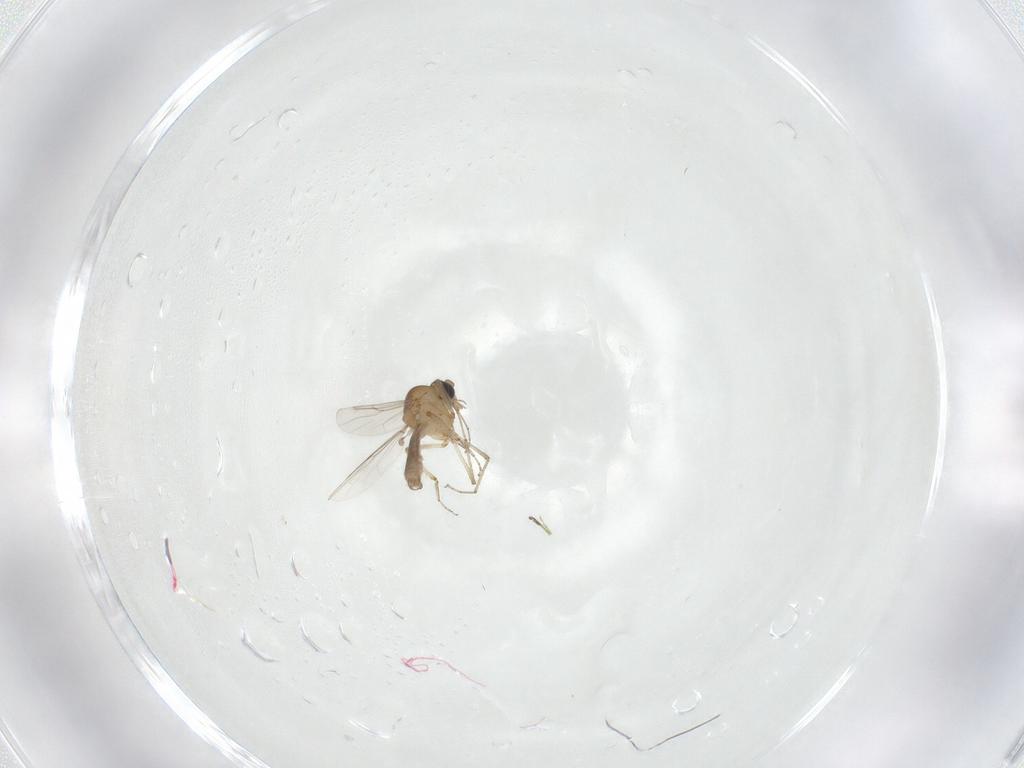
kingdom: Animalia
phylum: Arthropoda
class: Insecta
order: Diptera
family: Ceratopogonidae
